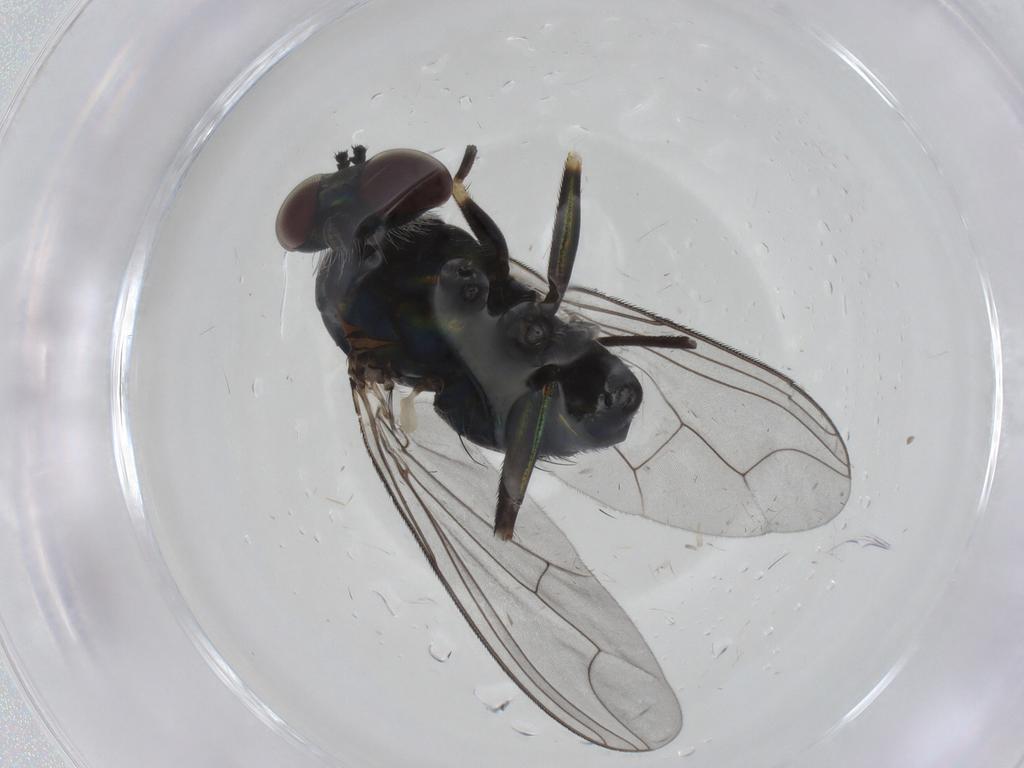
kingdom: Animalia
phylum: Arthropoda
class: Insecta
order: Diptera
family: Dolichopodidae
